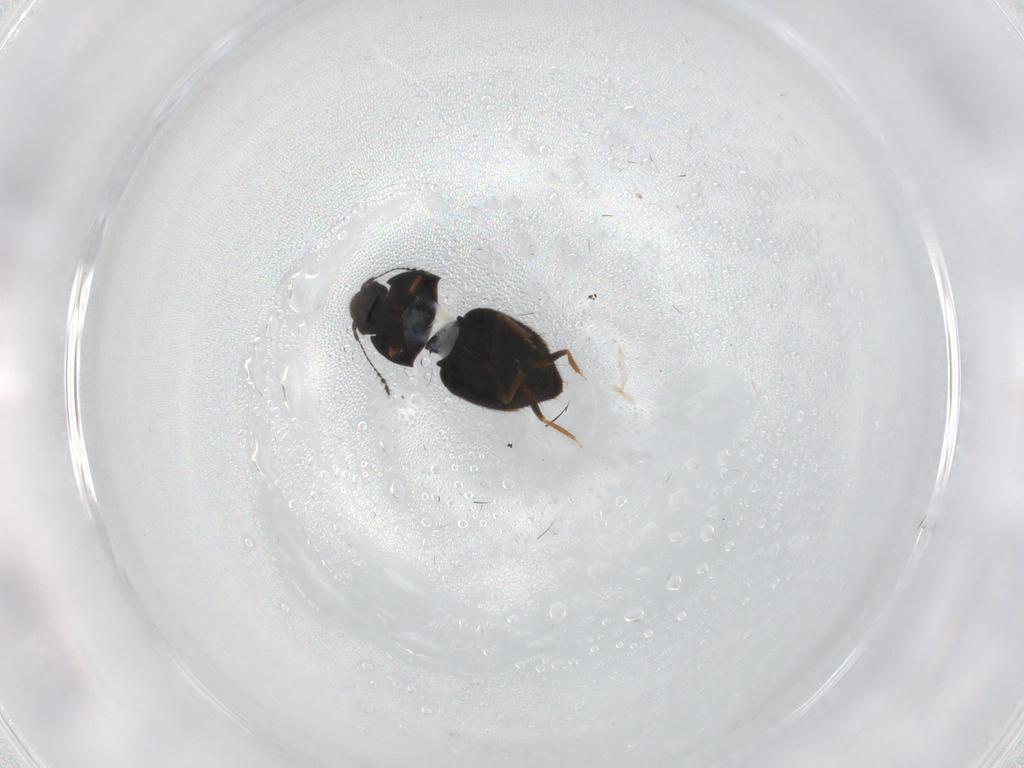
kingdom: Animalia
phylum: Arthropoda
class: Insecta
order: Coleoptera
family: Ptiliidae
